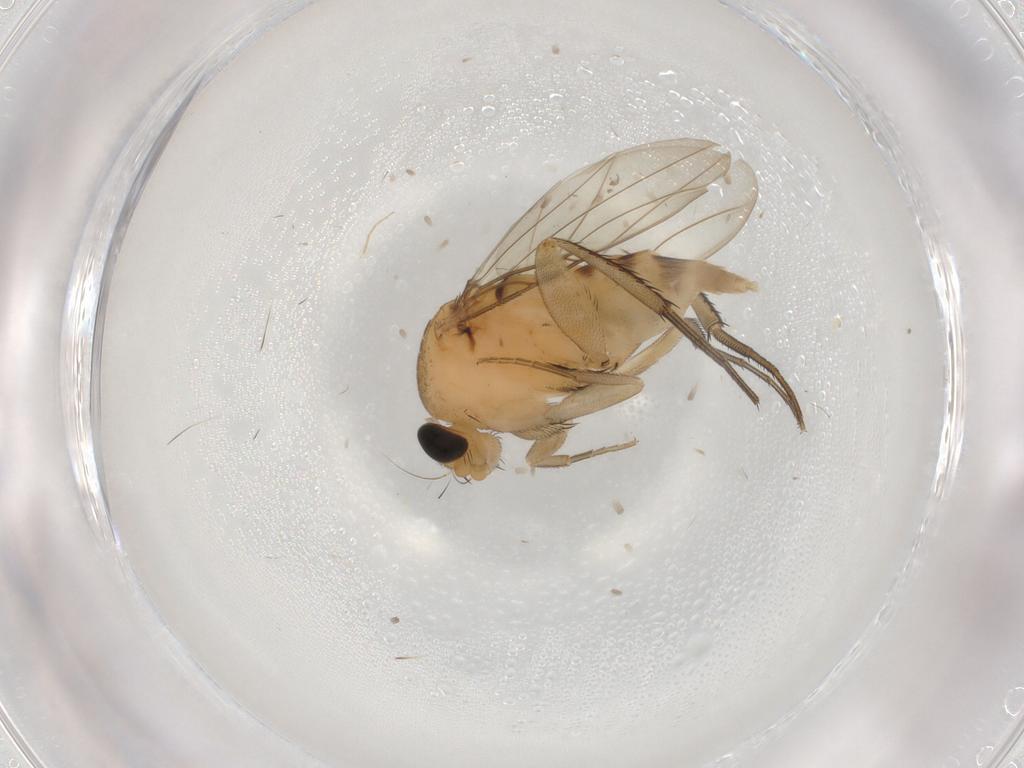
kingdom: Animalia
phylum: Arthropoda
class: Insecta
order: Diptera
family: Phoridae
